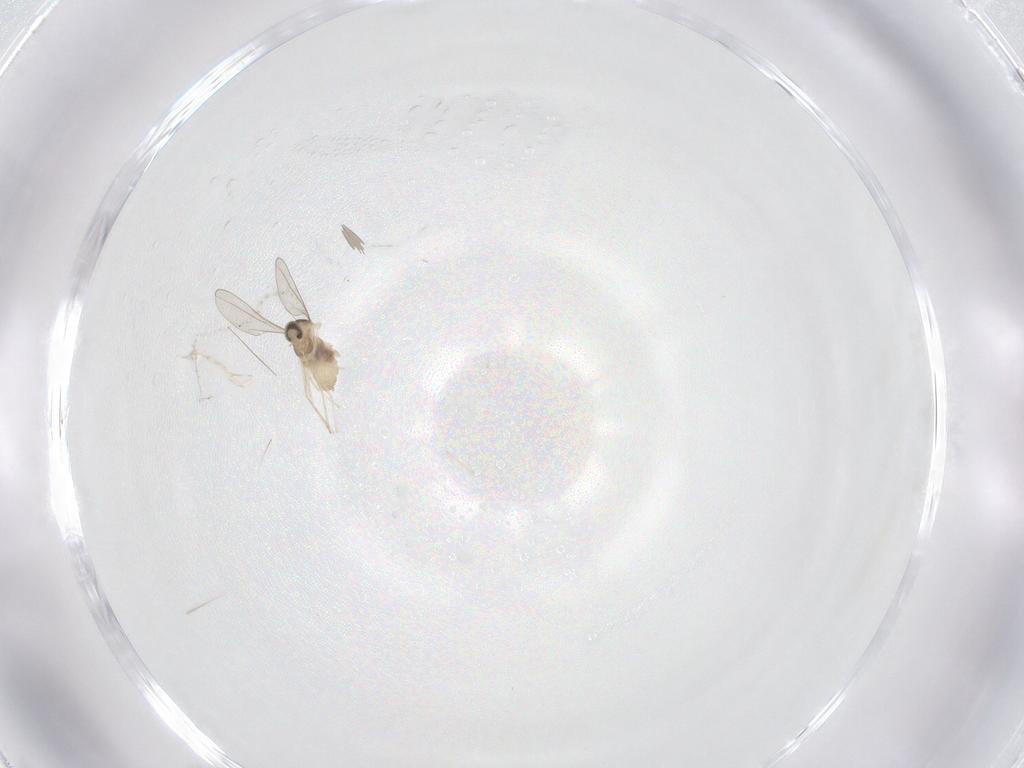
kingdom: Animalia
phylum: Arthropoda
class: Insecta
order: Diptera
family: Cecidomyiidae
